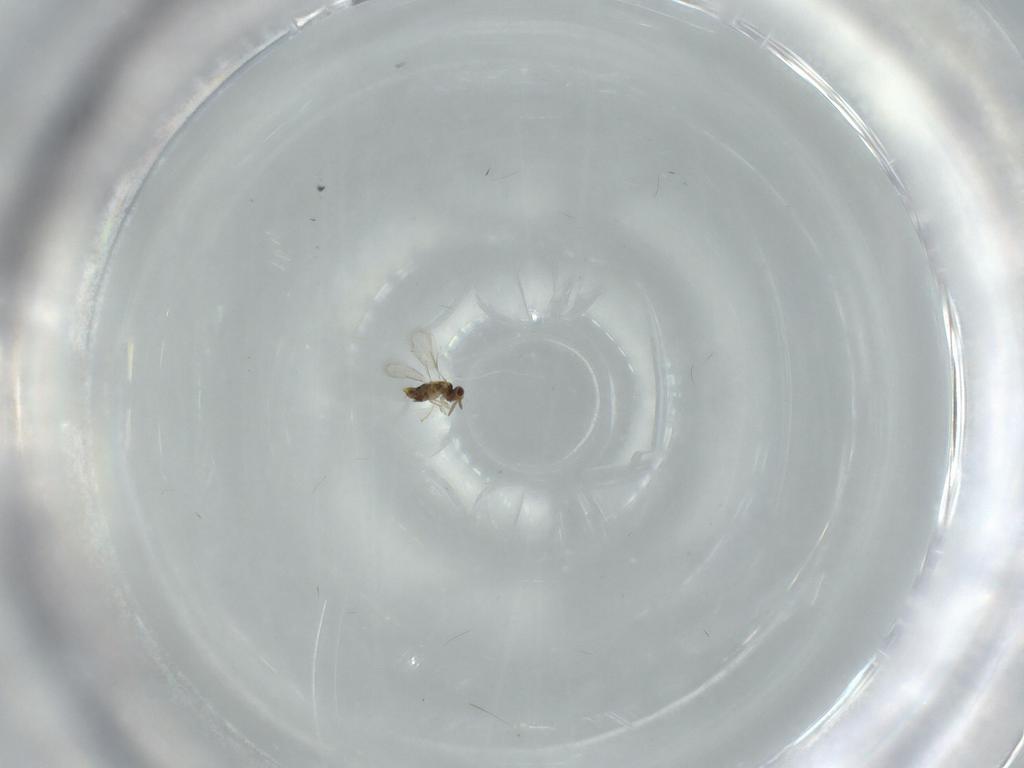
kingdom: Animalia
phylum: Arthropoda
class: Insecta
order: Hymenoptera
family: Aphelinidae
